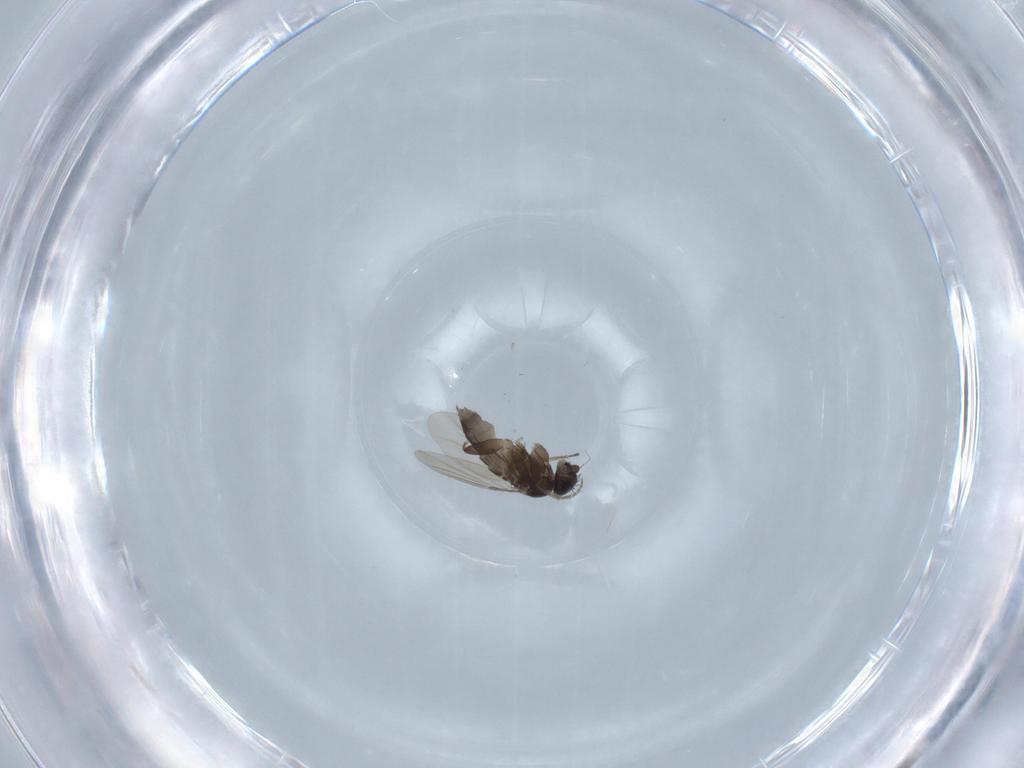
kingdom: Animalia
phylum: Arthropoda
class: Insecta
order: Diptera
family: Phoridae
